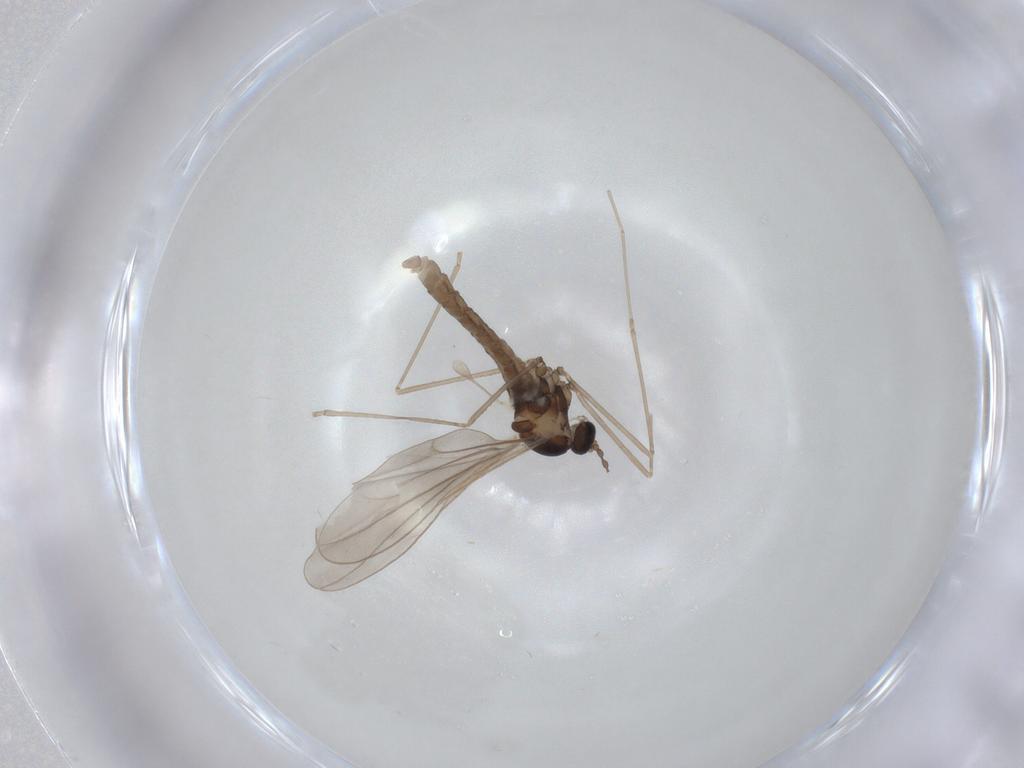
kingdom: Animalia
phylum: Arthropoda
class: Insecta
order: Diptera
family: Cecidomyiidae
